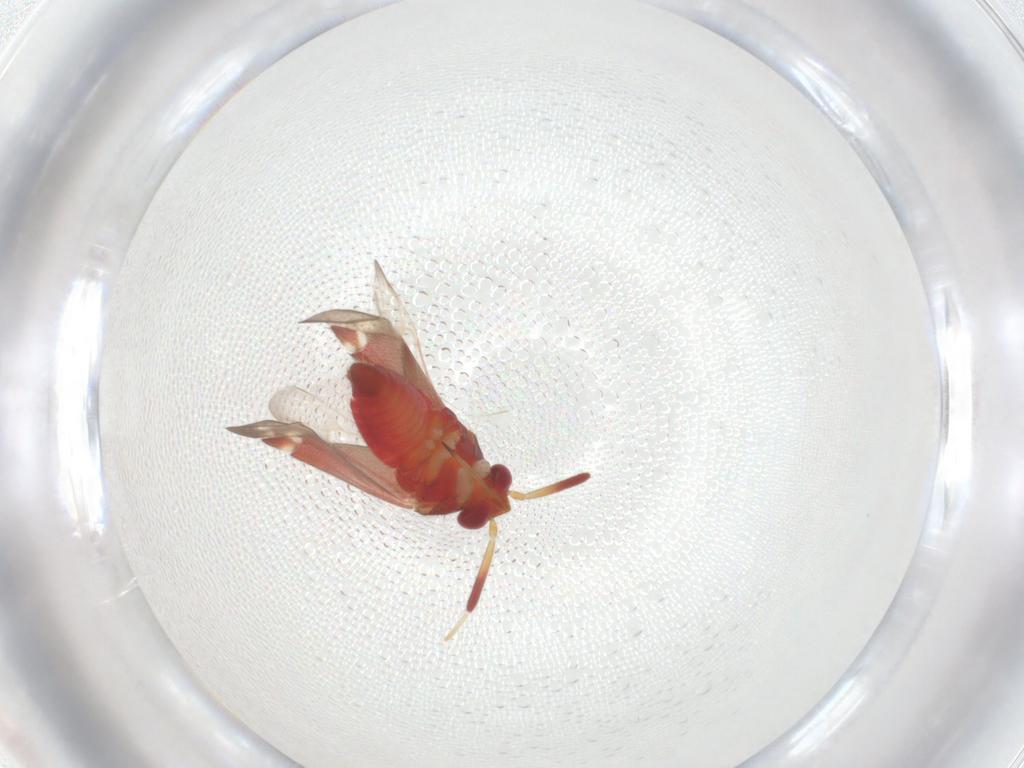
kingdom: Animalia
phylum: Arthropoda
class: Insecta
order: Hemiptera
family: Miridae
